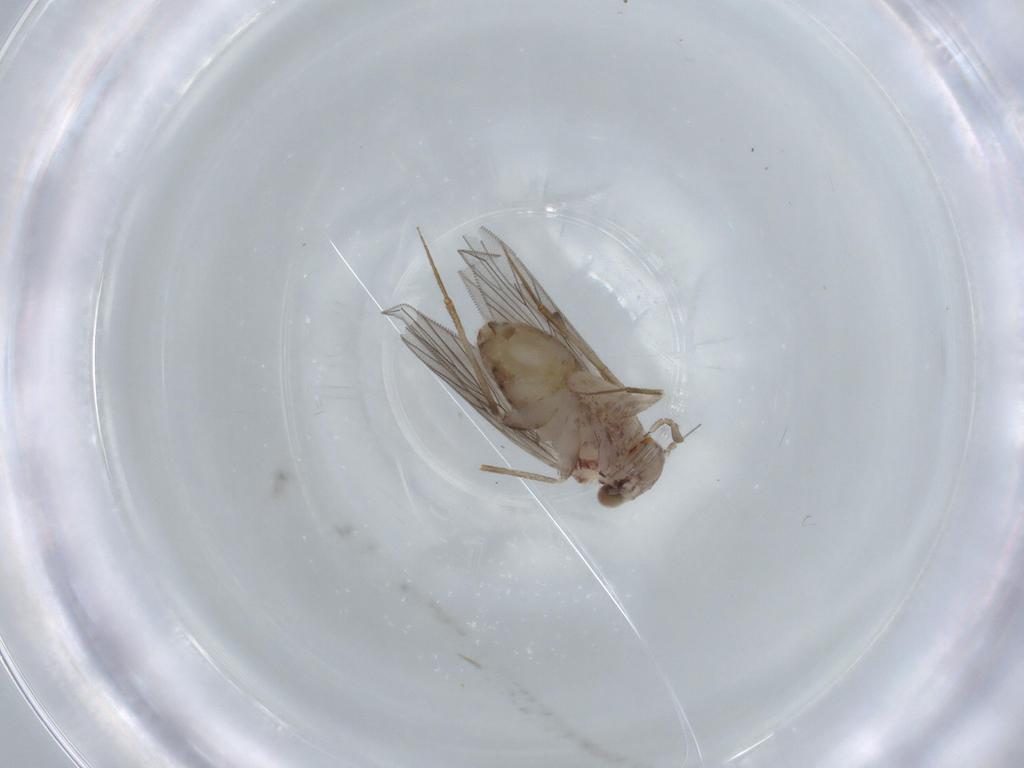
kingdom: Animalia
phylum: Arthropoda
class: Insecta
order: Psocodea
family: Lepidopsocidae
